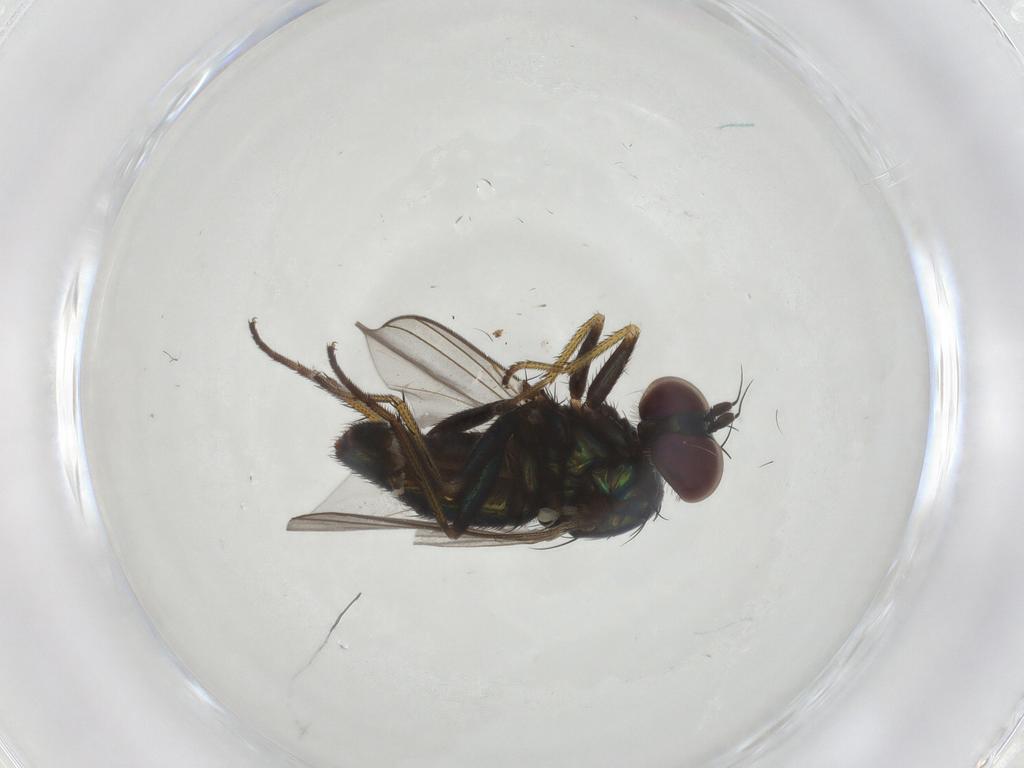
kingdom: Animalia
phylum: Arthropoda
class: Insecta
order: Diptera
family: Dolichopodidae
